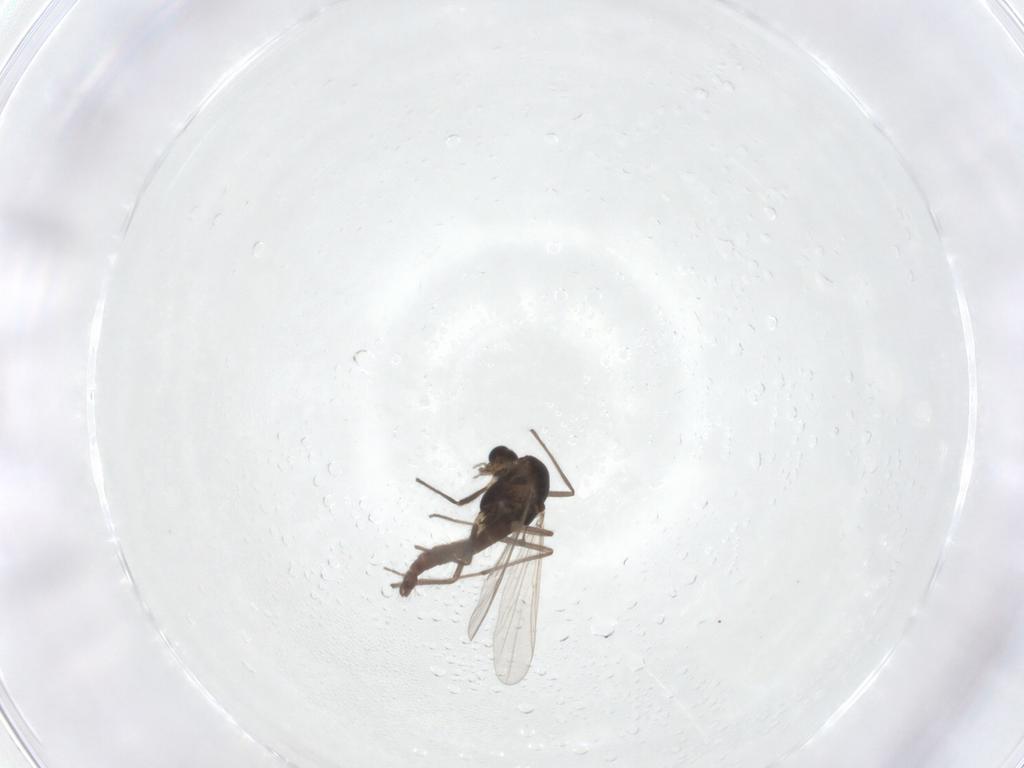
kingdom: Animalia
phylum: Arthropoda
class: Insecta
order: Diptera
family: Chironomidae
